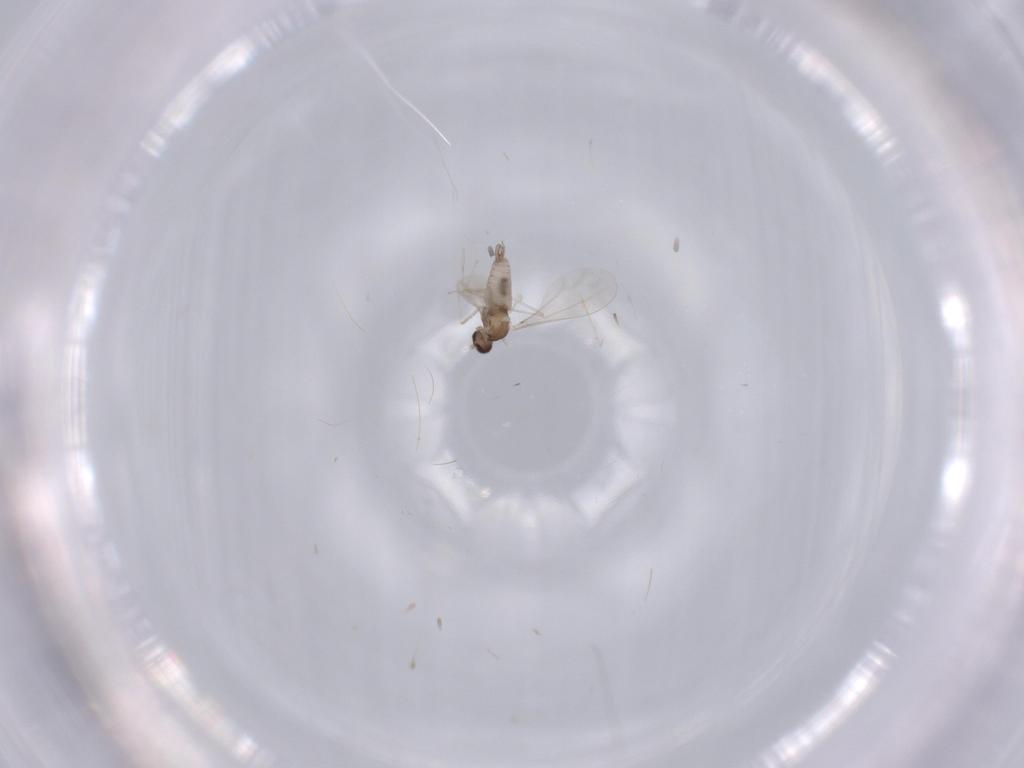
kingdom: Animalia
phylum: Arthropoda
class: Insecta
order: Diptera
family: Cecidomyiidae
